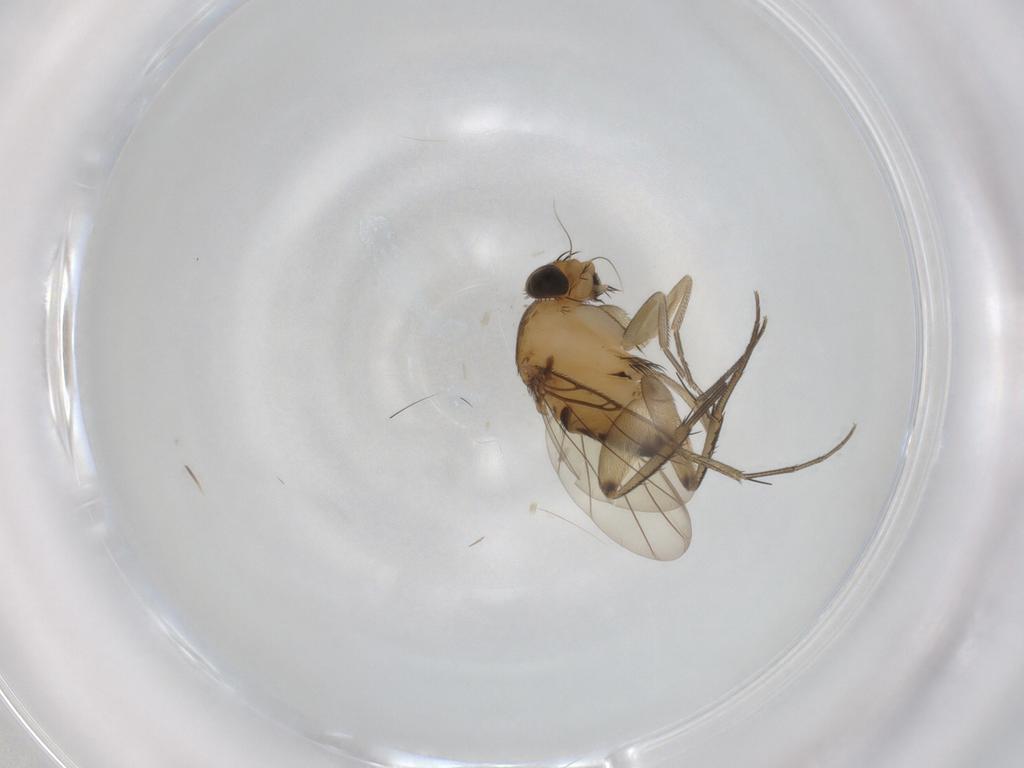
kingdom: Animalia
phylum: Arthropoda
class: Insecta
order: Diptera
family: Phoridae
